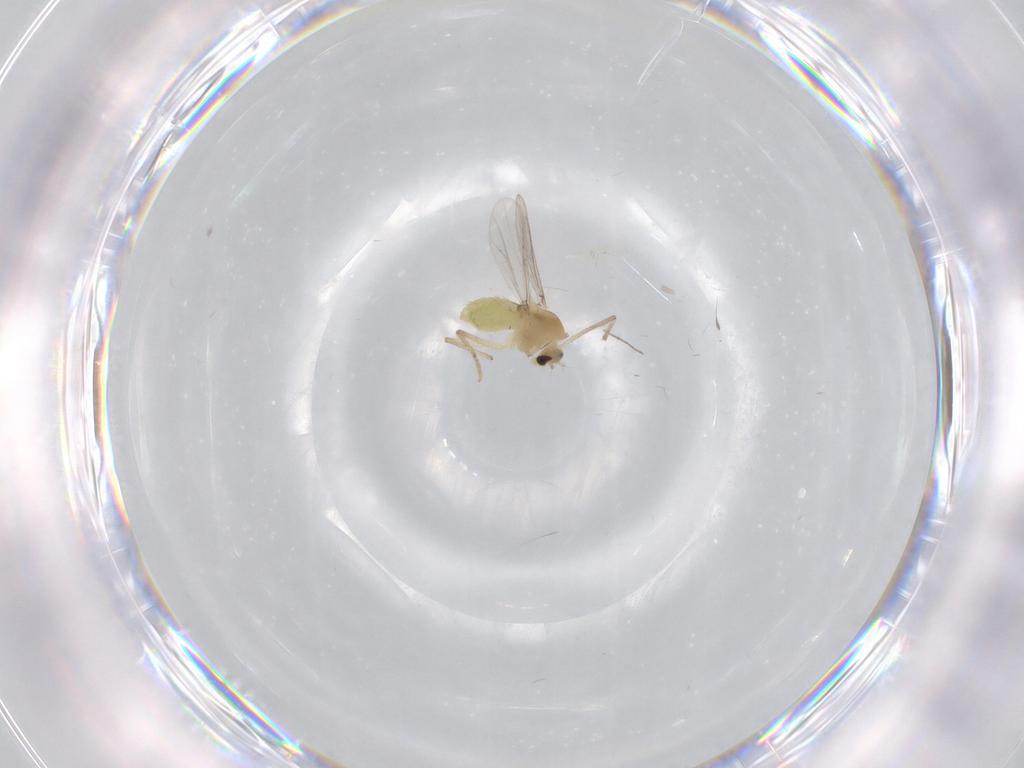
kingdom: Animalia
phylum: Arthropoda
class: Insecta
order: Diptera
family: Chironomidae
